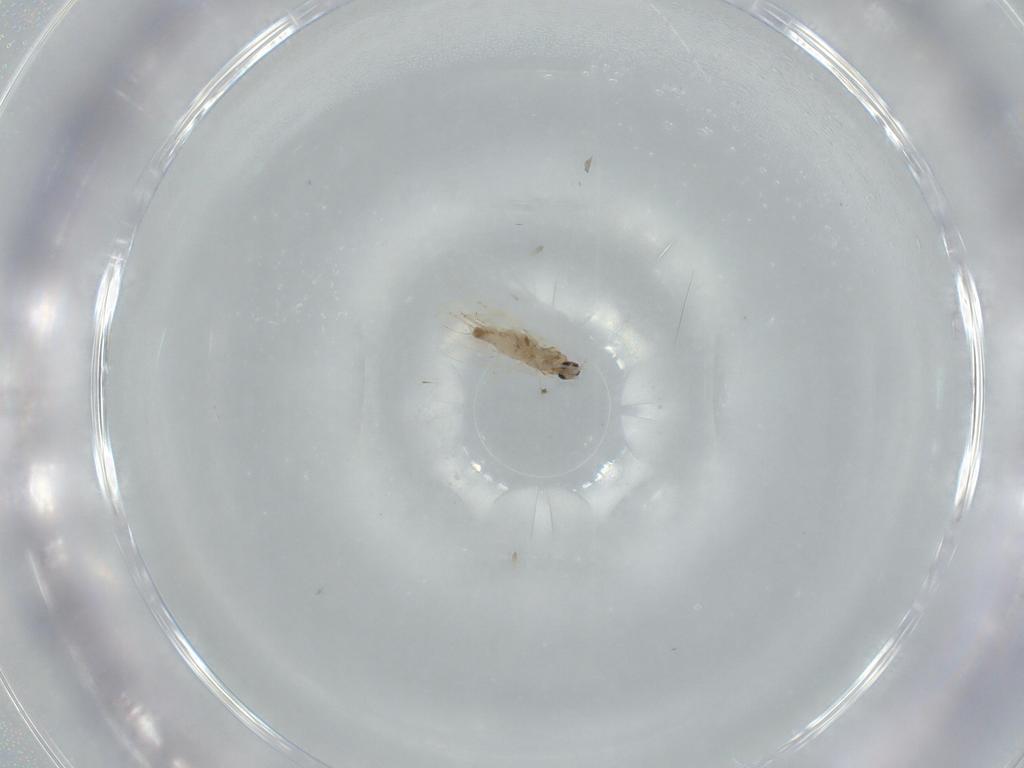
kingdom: Animalia
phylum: Arthropoda
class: Insecta
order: Diptera
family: Cecidomyiidae
